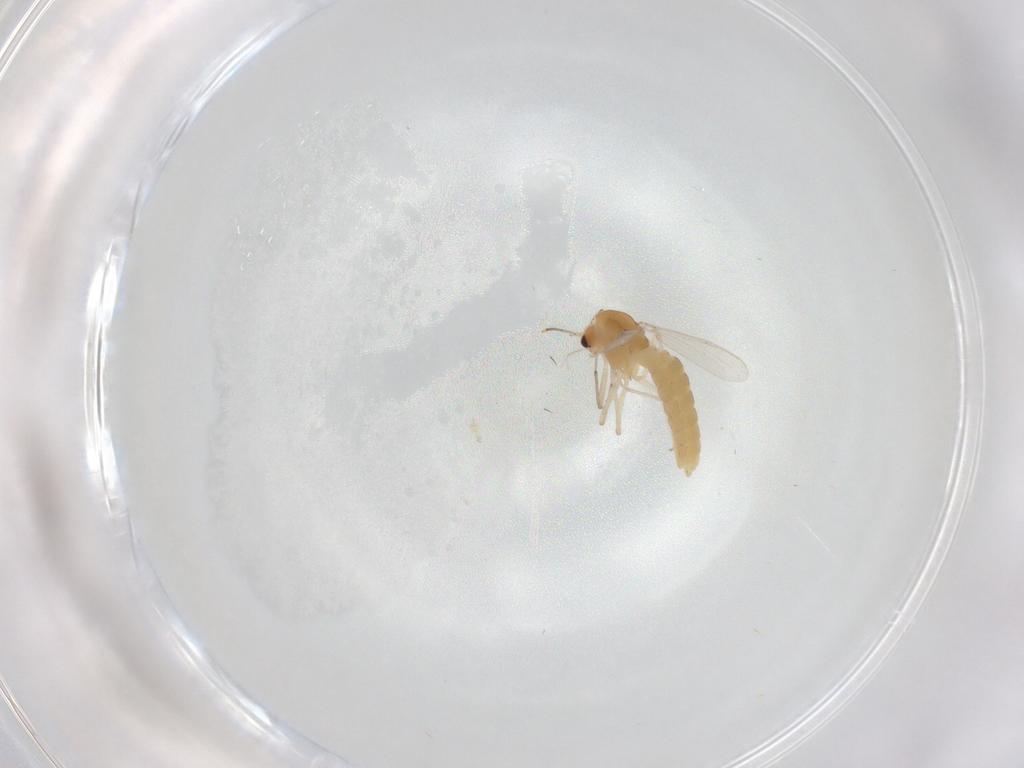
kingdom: Animalia
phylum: Arthropoda
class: Insecta
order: Diptera
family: Chironomidae
